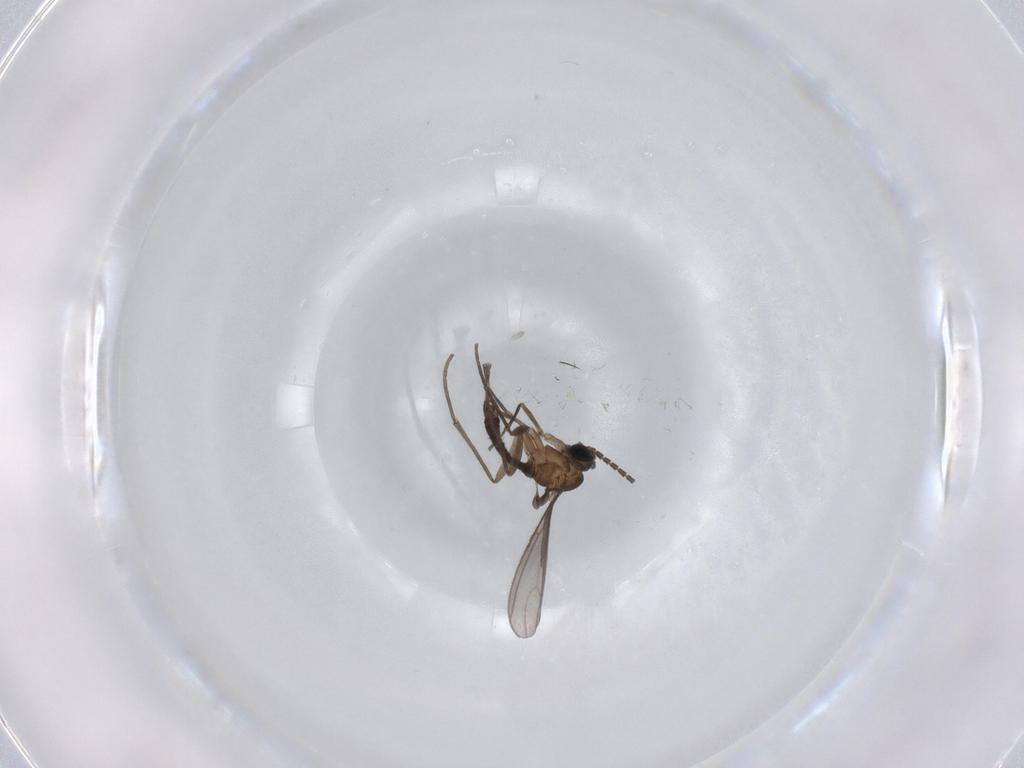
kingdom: Animalia
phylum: Arthropoda
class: Insecta
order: Diptera
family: Sciaridae
